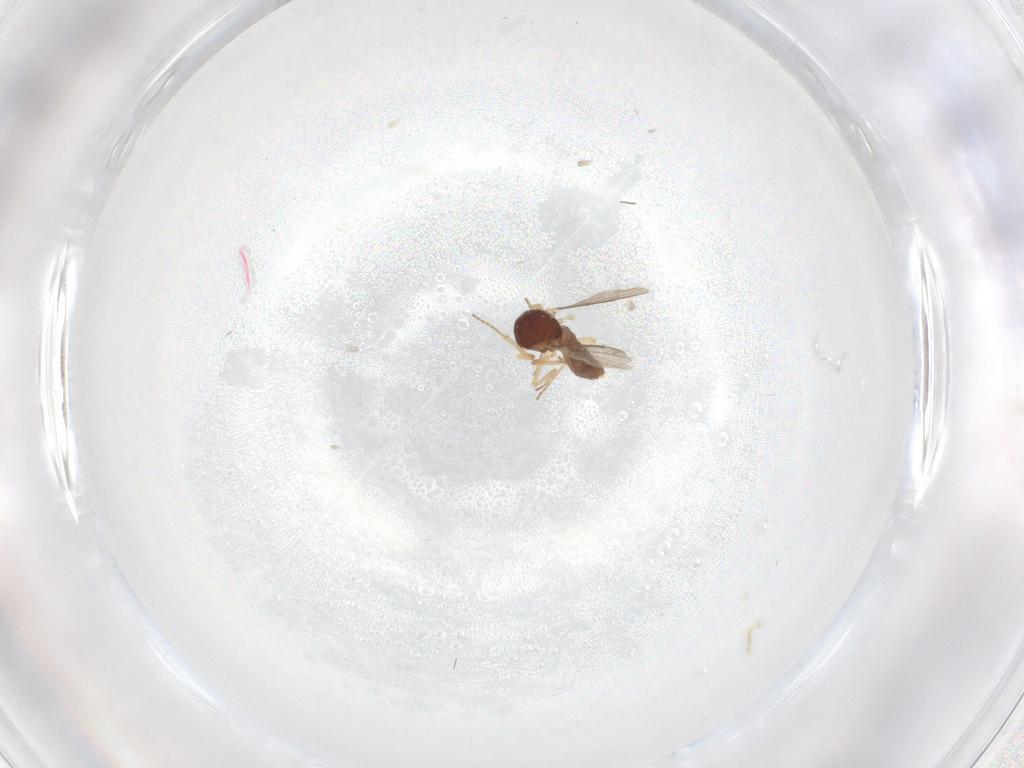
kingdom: Animalia
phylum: Arthropoda
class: Insecta
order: Diptera
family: Ceratopogonidae
